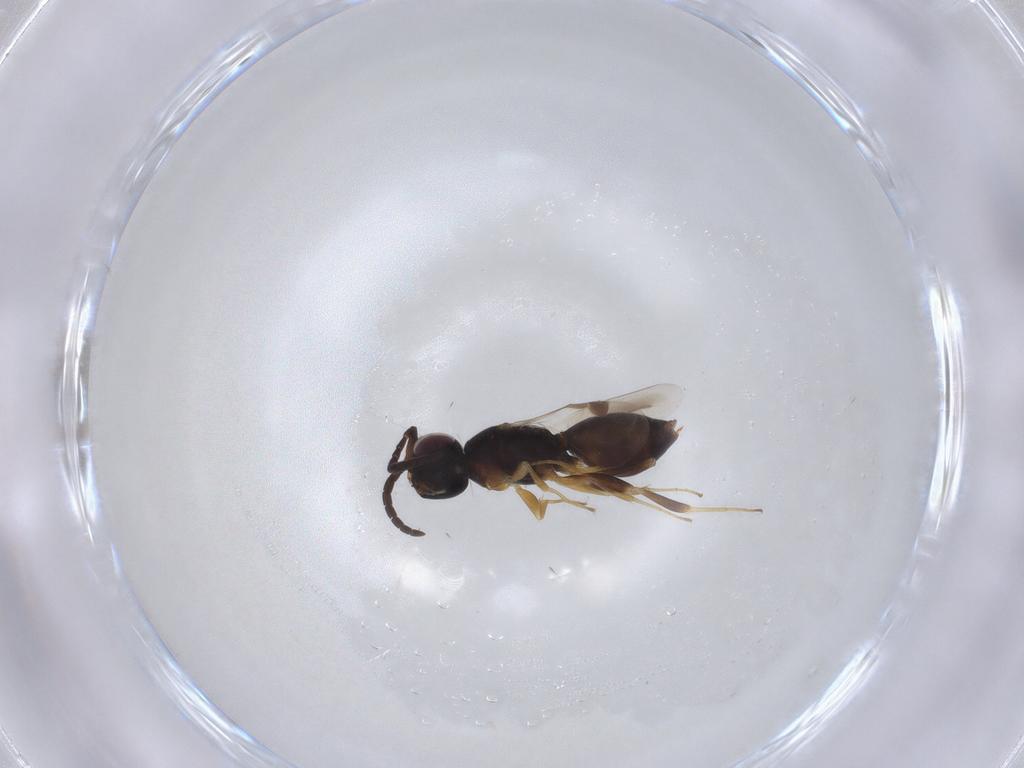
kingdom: Animalia
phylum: Arthropoda
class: Insecta
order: Hymenoptera
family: Megaspilidae
